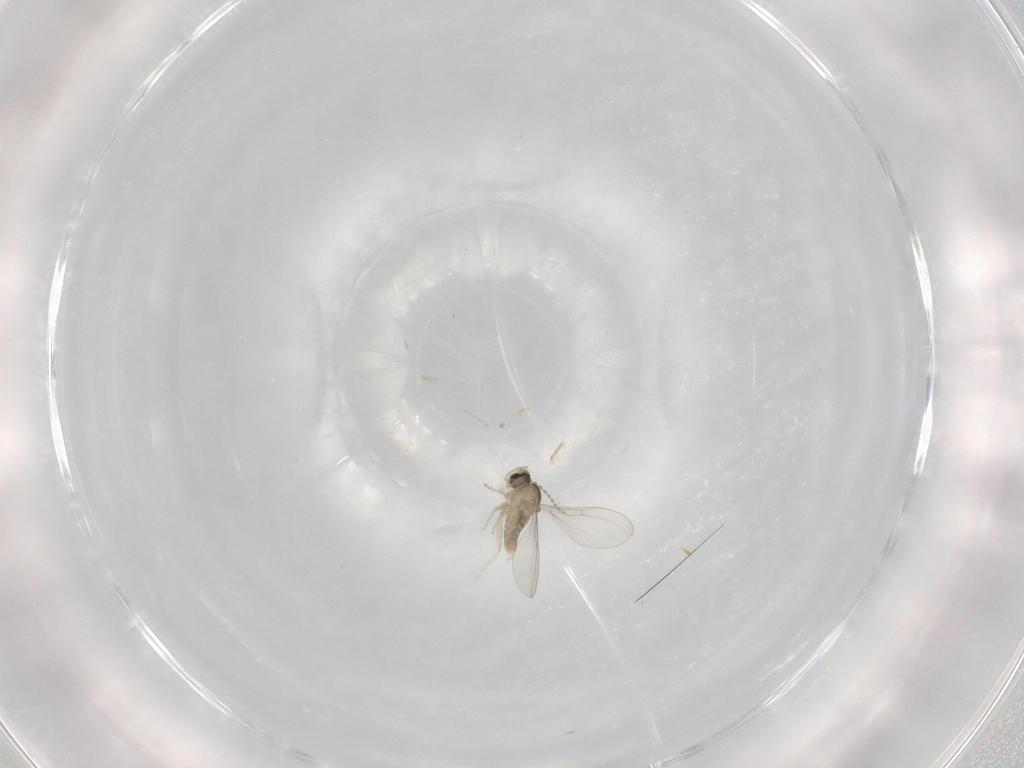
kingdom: Animalia
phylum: Arthropoda
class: Insecta
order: Diptera
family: Cecidomyiidae
